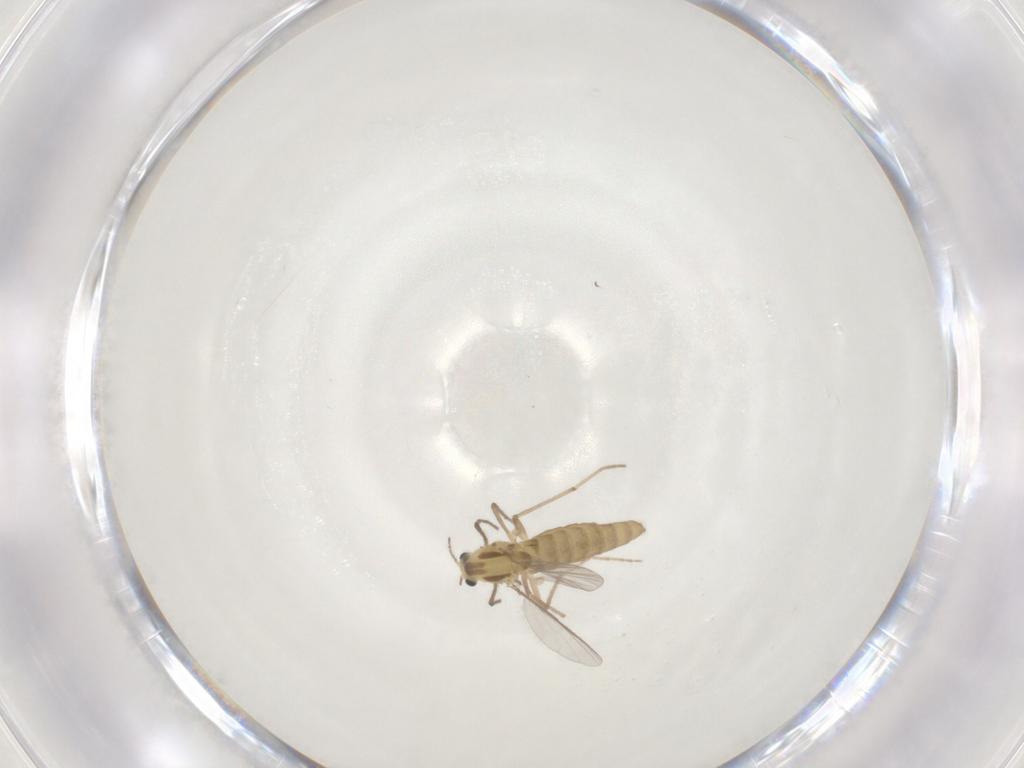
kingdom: Animalia
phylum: Arthropoda
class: Insecta
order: Diptera
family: Chironomidae
